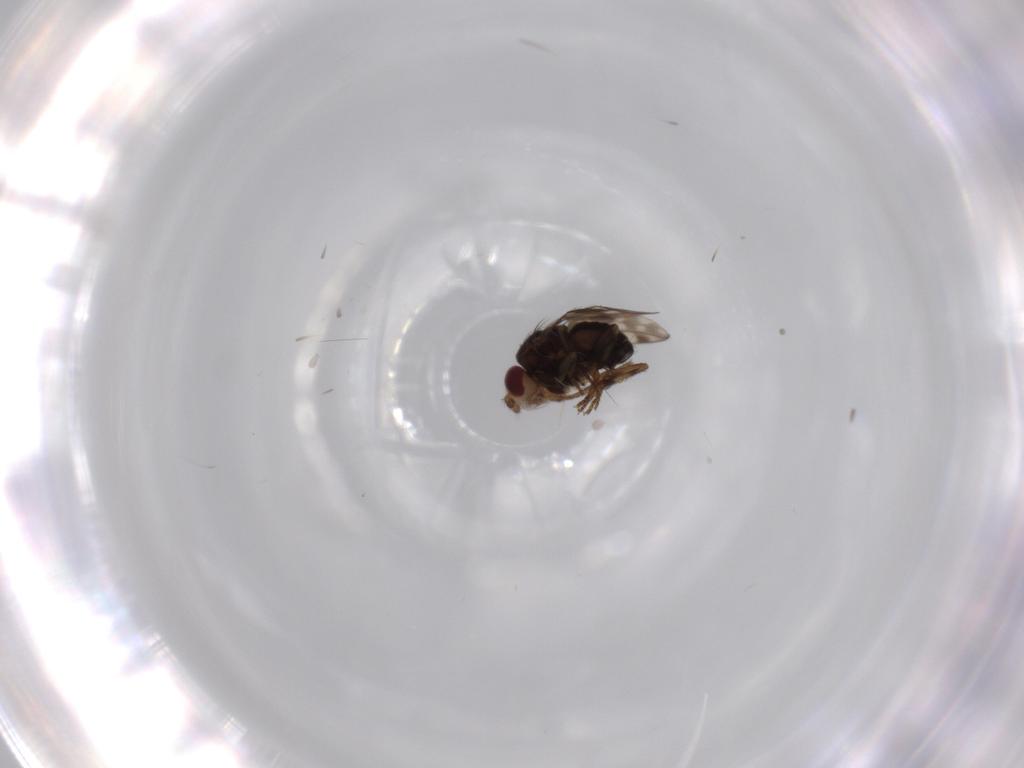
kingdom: Animalia
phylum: Arthropoda
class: Insecta
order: Diptera
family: Sphaeroceridae
